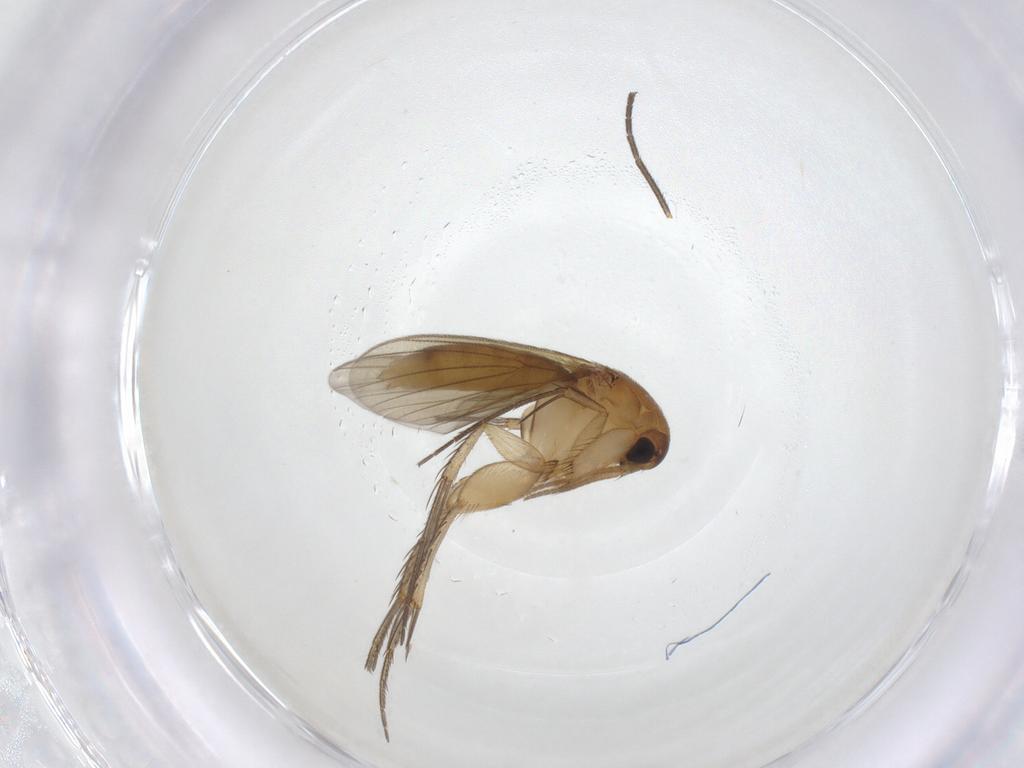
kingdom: Animalia
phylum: Arthropoda
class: Insecta
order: Diptera
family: Mycetophilidae
